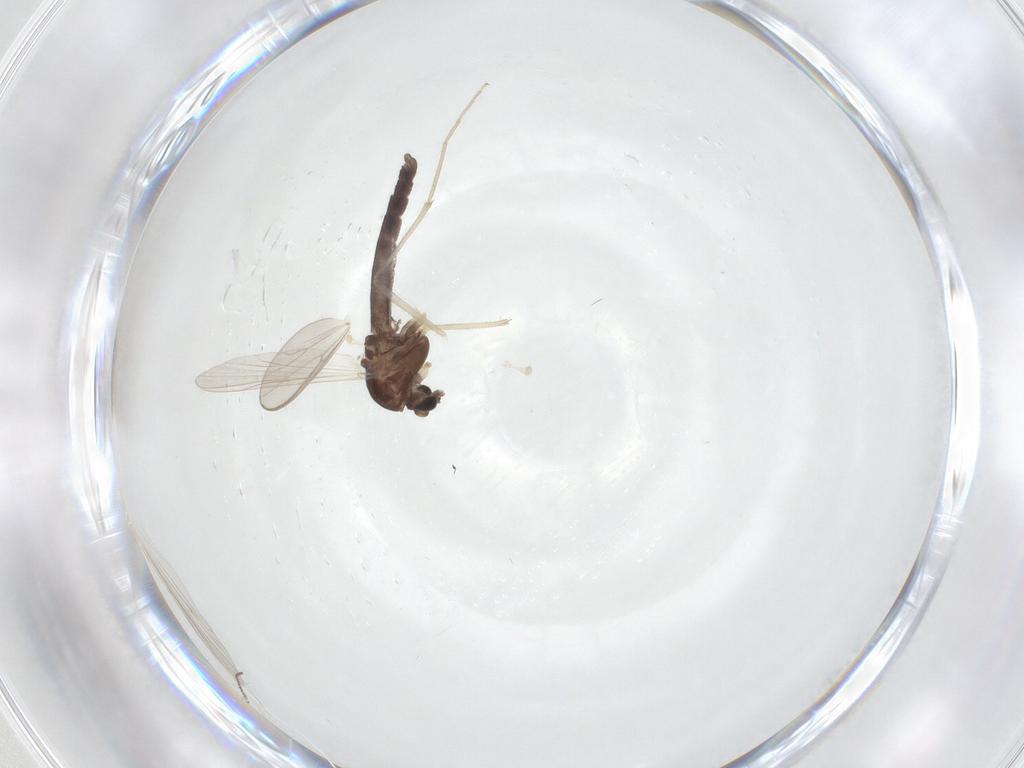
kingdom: Animalia
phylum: Arthropoda
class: Insecta
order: Diptera
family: Chironomidae
